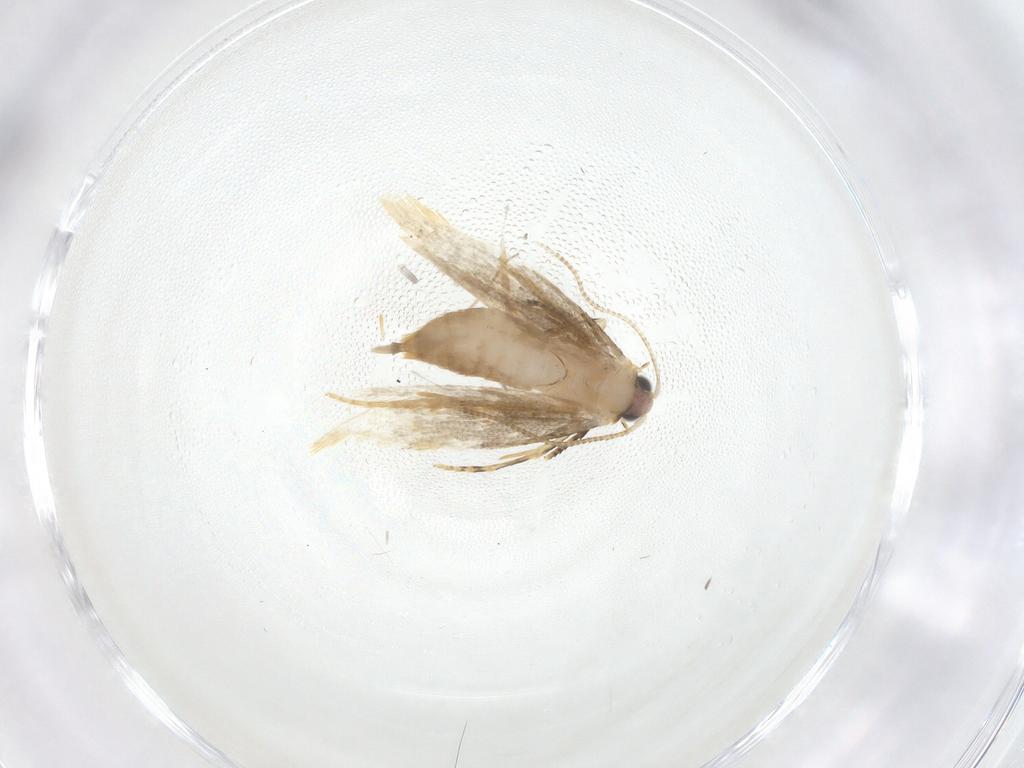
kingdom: Animalia
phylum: Arthropoda
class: Insecta
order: Lepidoptera
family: Tineidae
